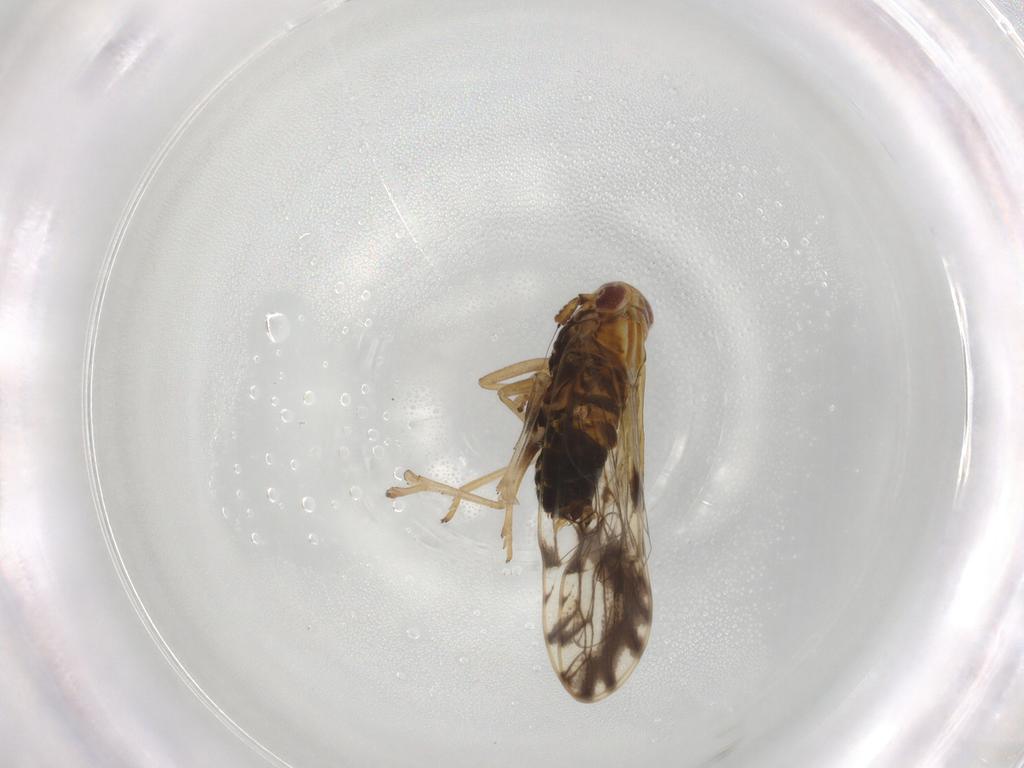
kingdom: Animalia
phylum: Arthropoda
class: Insecta
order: Hemiptera
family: Delphacidae
